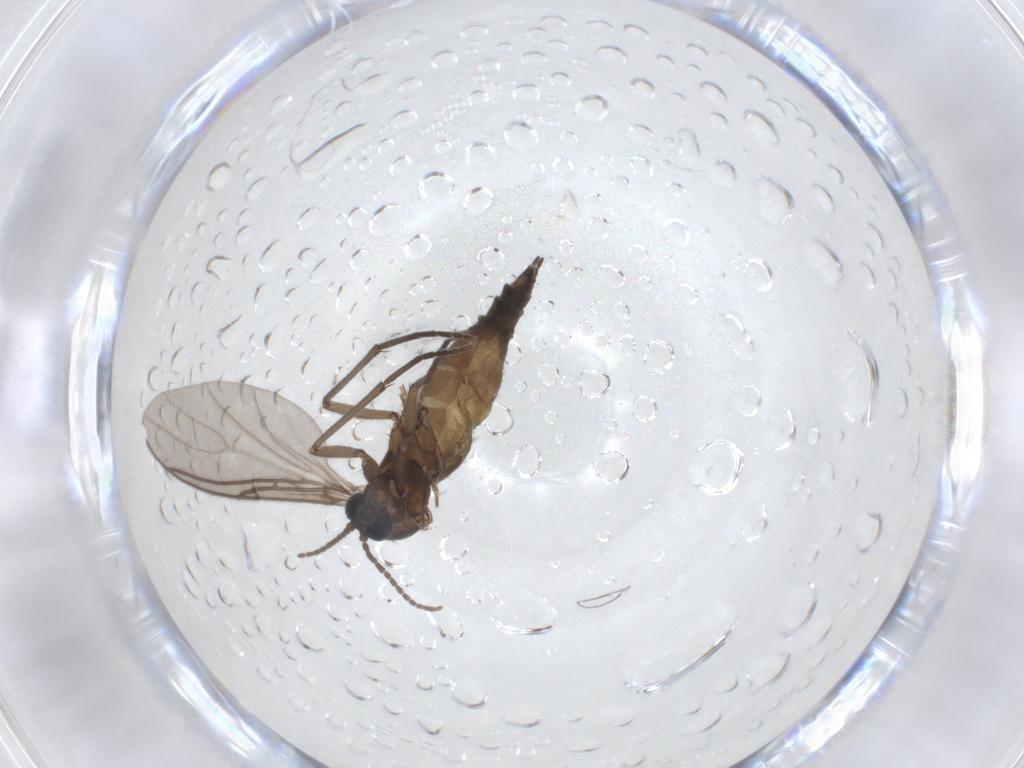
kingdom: Animalia
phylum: Arthropoda
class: Insecta
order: Diptera
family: Sciaridae
